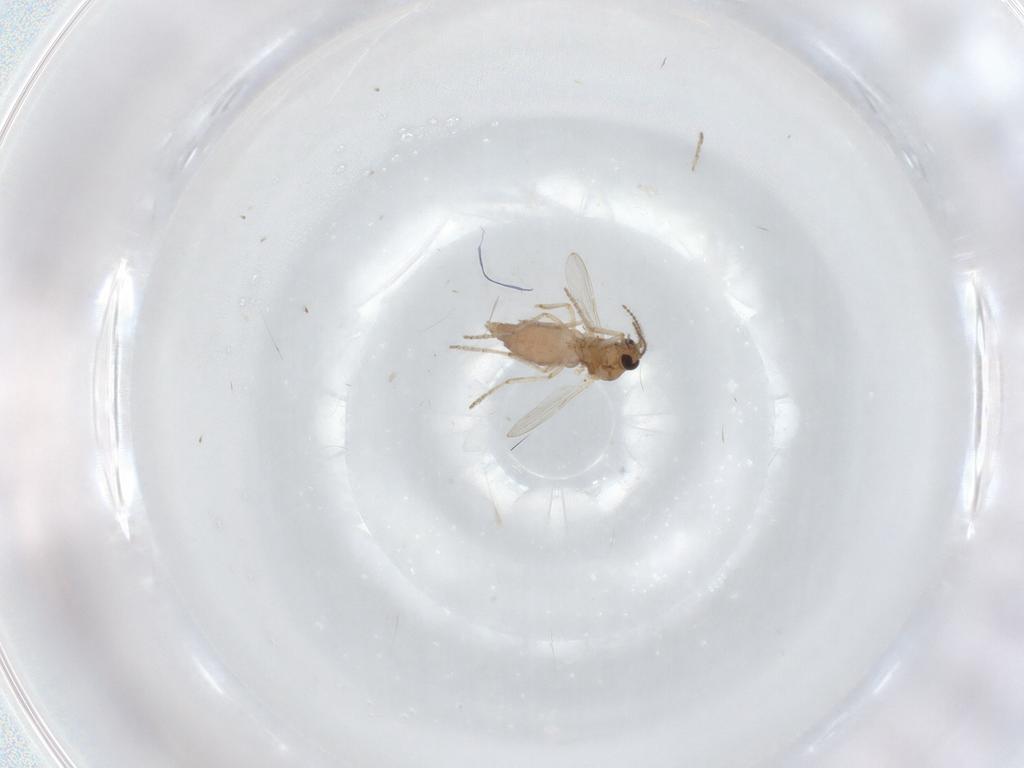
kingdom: Animalia
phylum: Arthropoda
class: Insecta
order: Diptera
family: Ceratopogonidae
